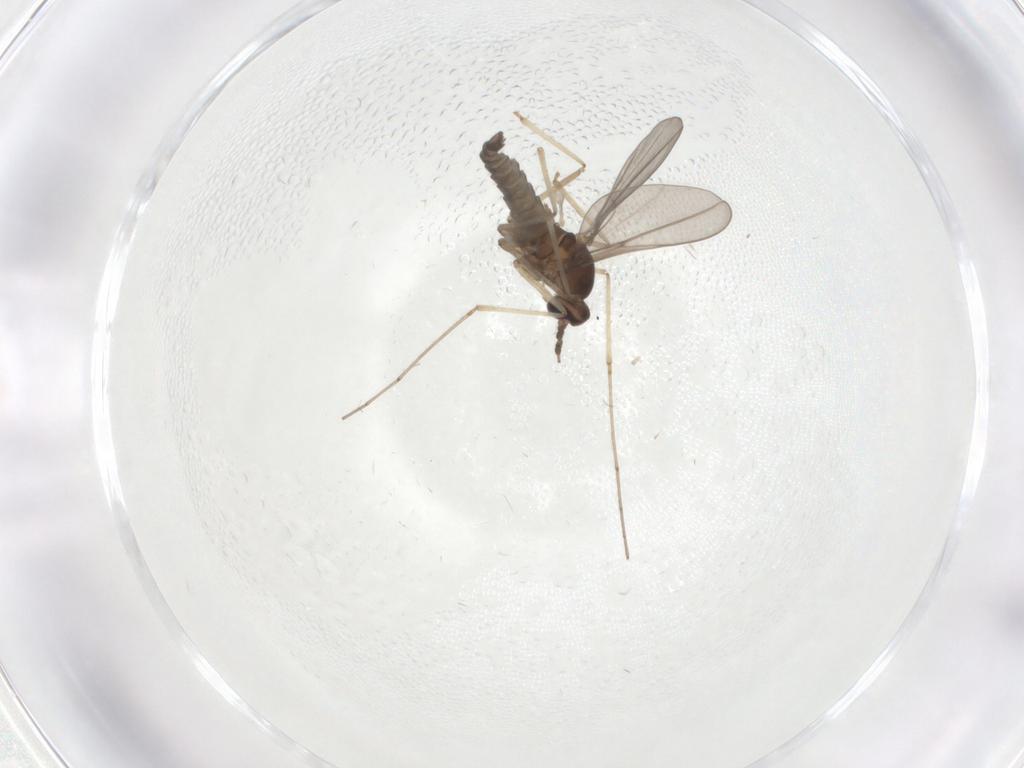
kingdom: Animalia
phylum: Arthropoda
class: Insecta
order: Diptera
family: Cecidomyiidae
